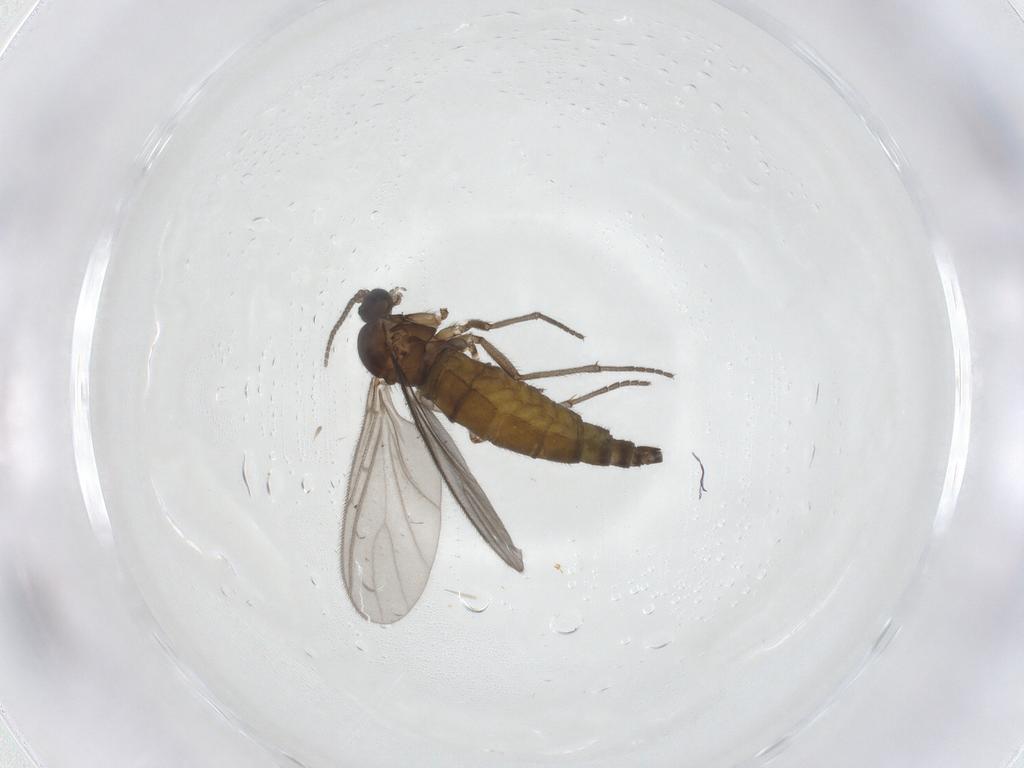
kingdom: Animalia
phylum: Arthropoda
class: Insecta
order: Diptera
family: Sciaridae
